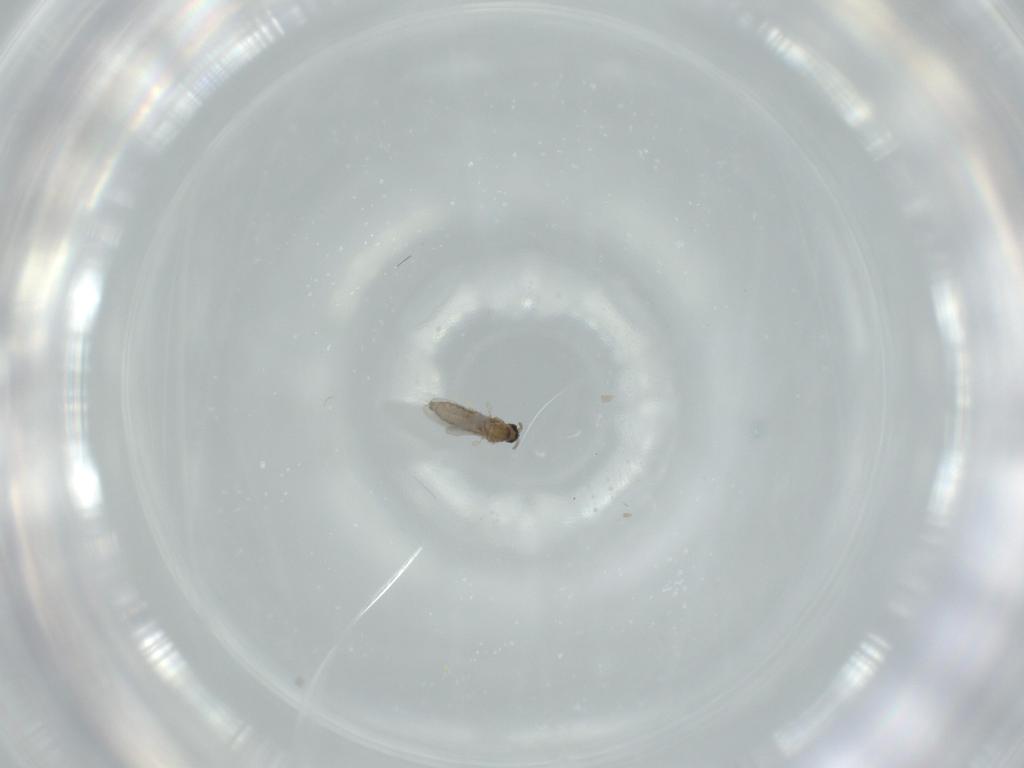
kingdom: Animalia
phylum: Arthropoda
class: Insecta
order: Diptera
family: Cecidomyiidae
